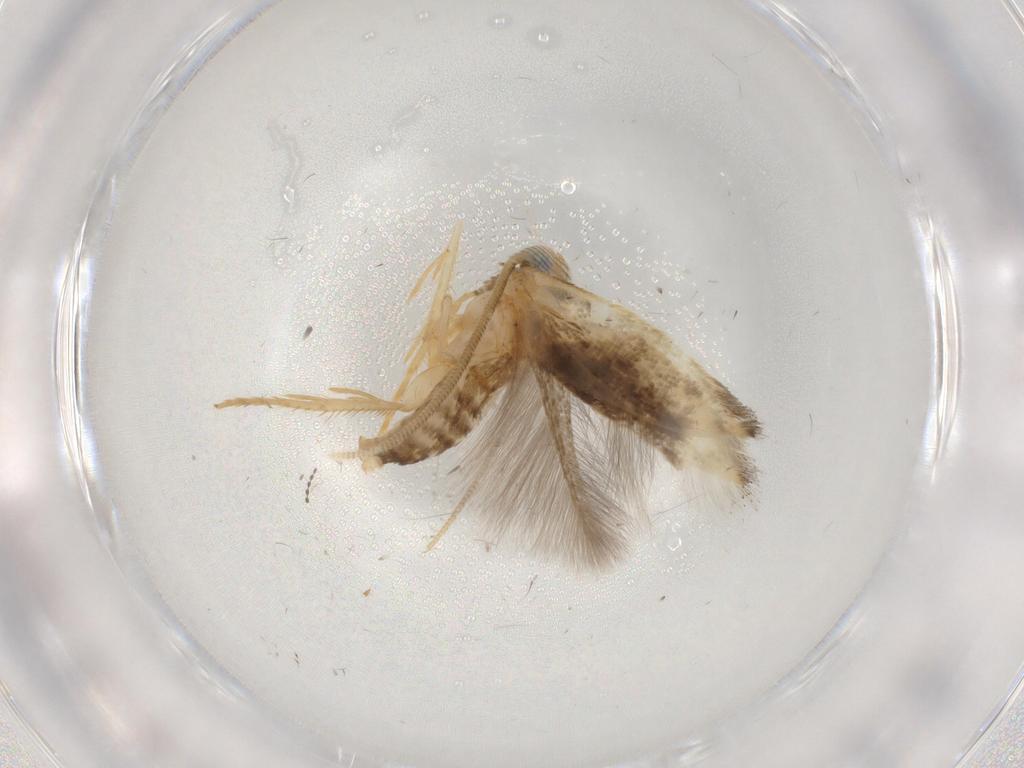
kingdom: Animalia
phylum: Arthropoda
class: Insecta
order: Lepidoptera
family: Opostegidae
